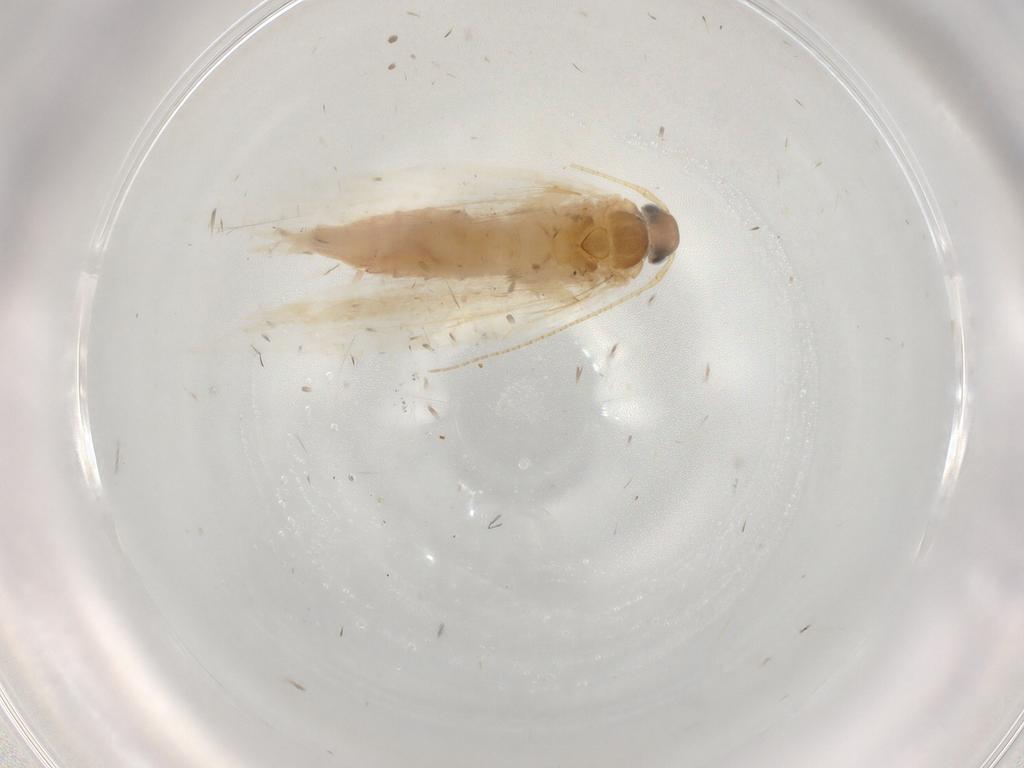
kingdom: Animalia
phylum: Arthropoda
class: Insecta
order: Lepidoptera
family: Gelechiidae
